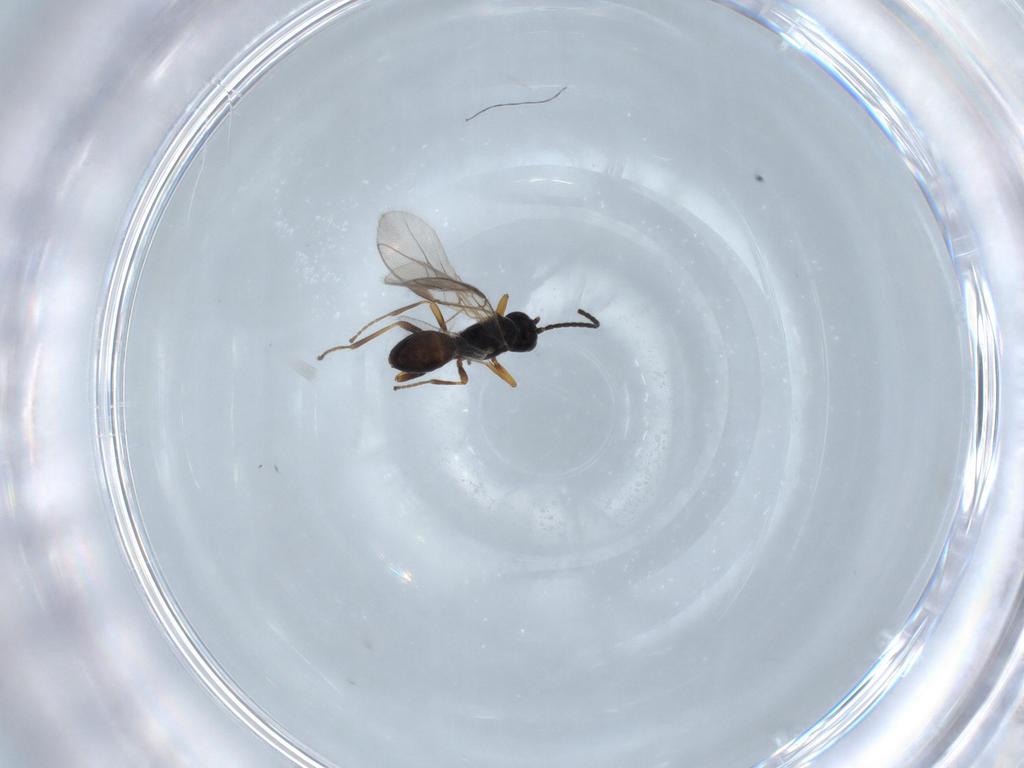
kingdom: Animalia
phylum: Arthropoda
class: Insecta
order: Hymenoptera
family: Braconidae
